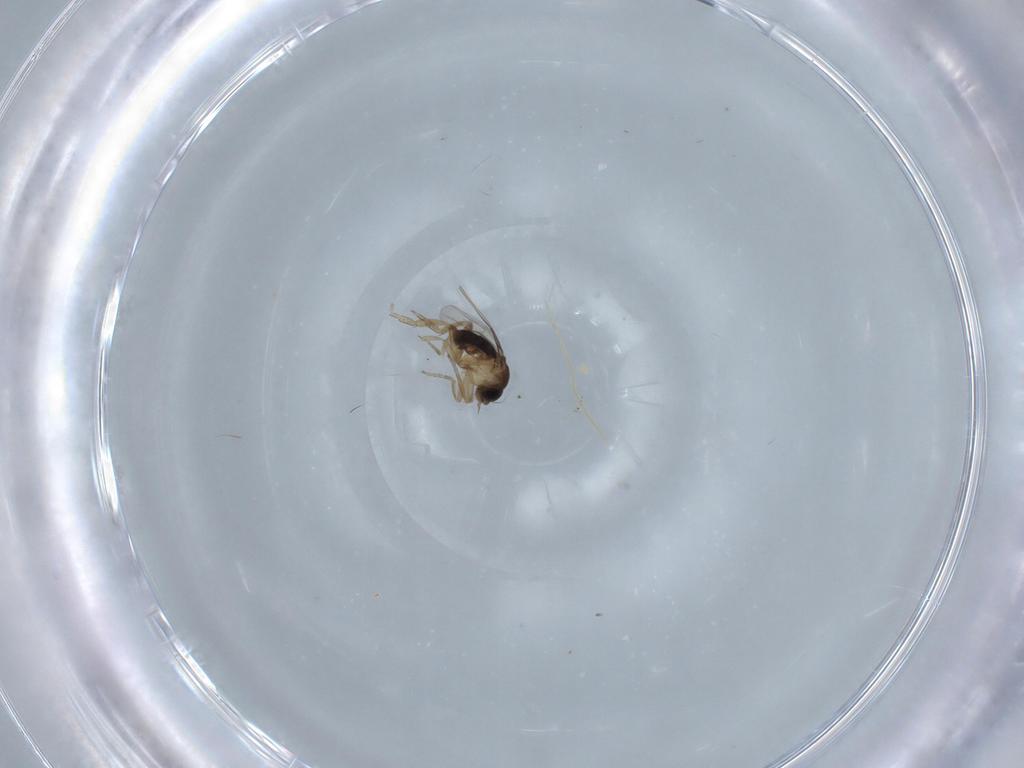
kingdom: Animalia
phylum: Arthropoda
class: Insecta
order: Diptera
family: Phoridae
